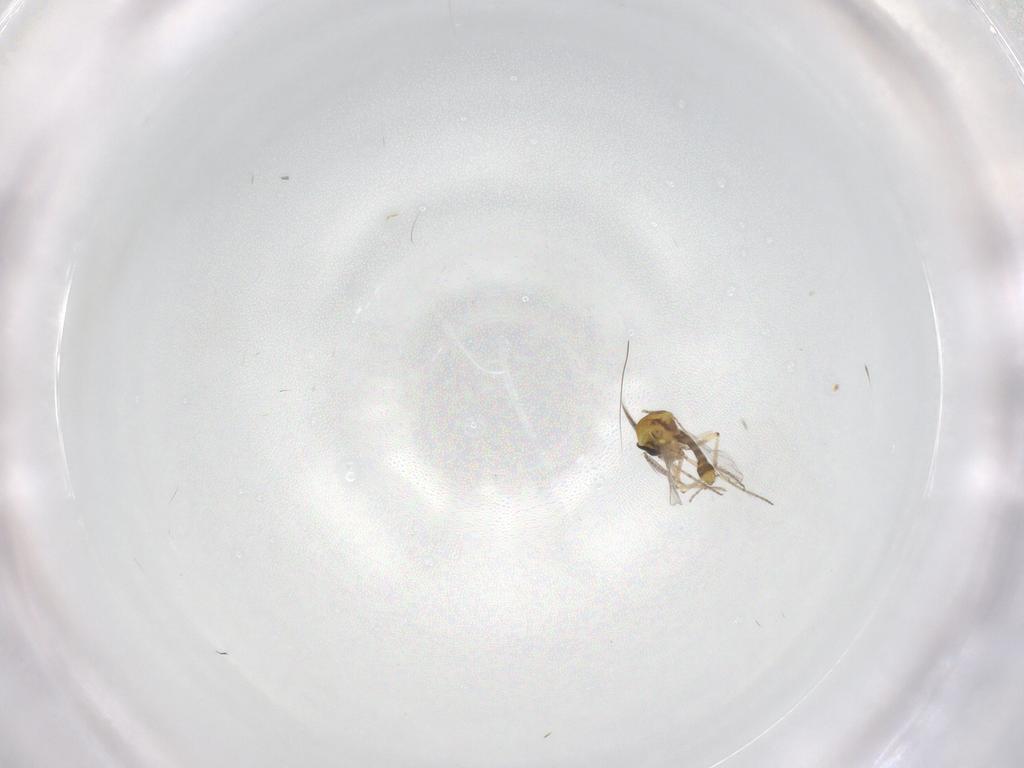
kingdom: Animalia
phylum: Arthropoda
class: Insecta
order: Diptera
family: Ceratopogonidae
